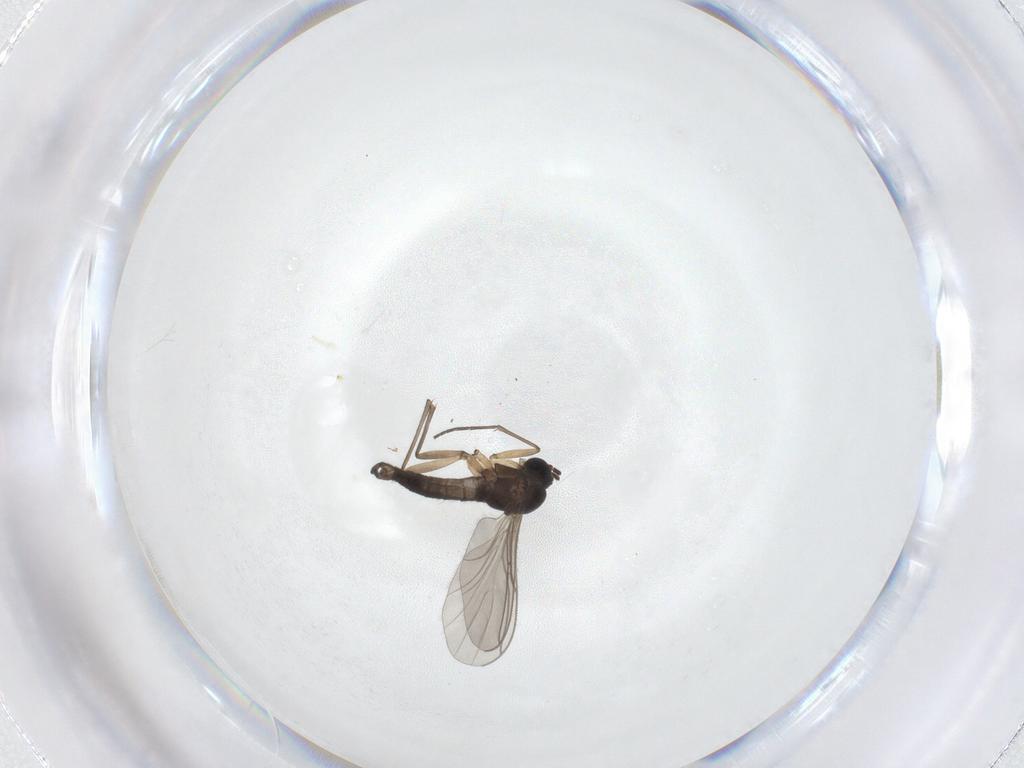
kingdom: Animalia
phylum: Arthropoda
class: Insecta
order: Diptera
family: Sciaridae
